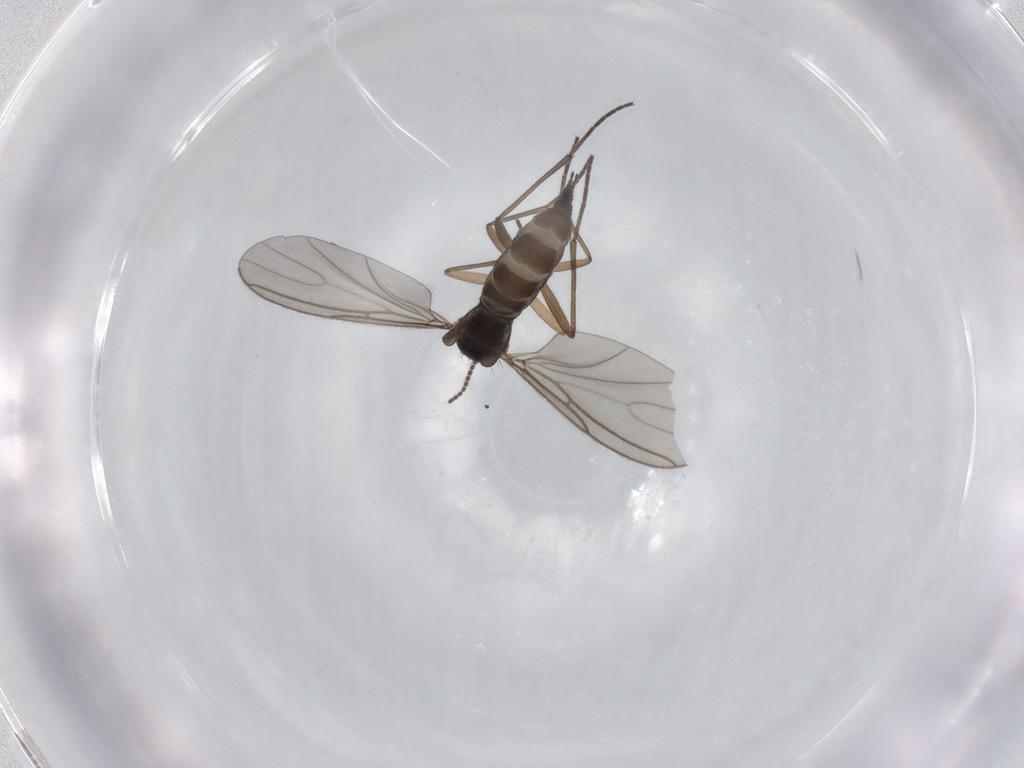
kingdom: Animalia
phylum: Arthropoda
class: Insecta
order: Diptera
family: Sciaridae
